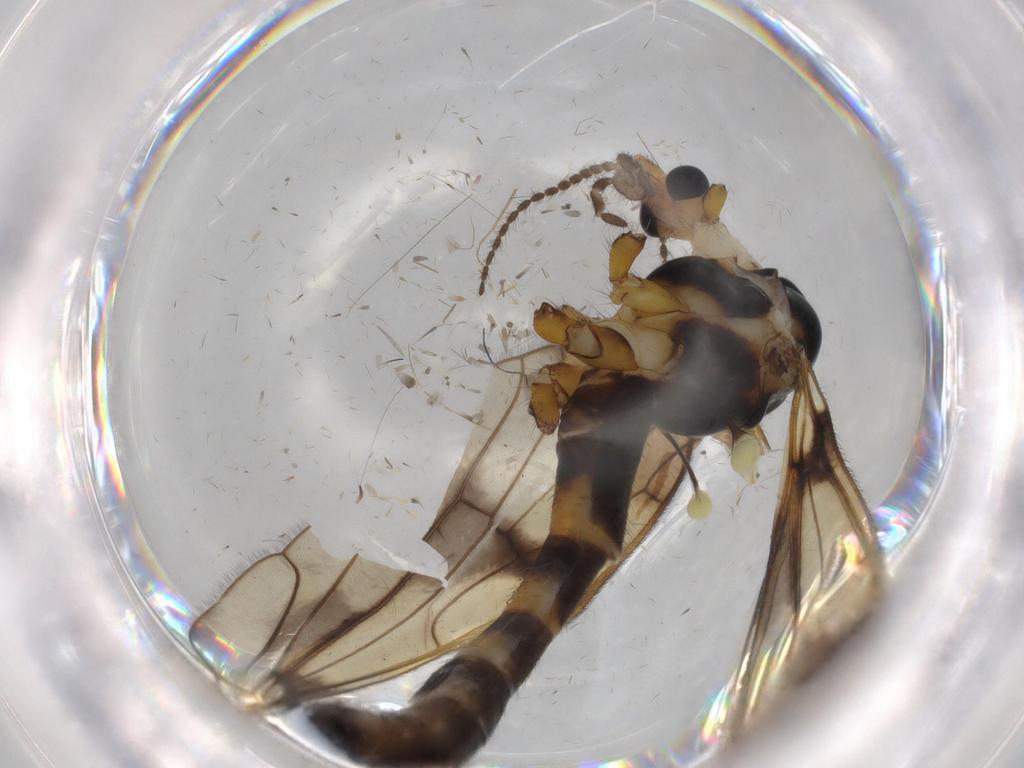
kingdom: Animalia
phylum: Arthropoda
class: Insecta
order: Diptera
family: Limoniidae
